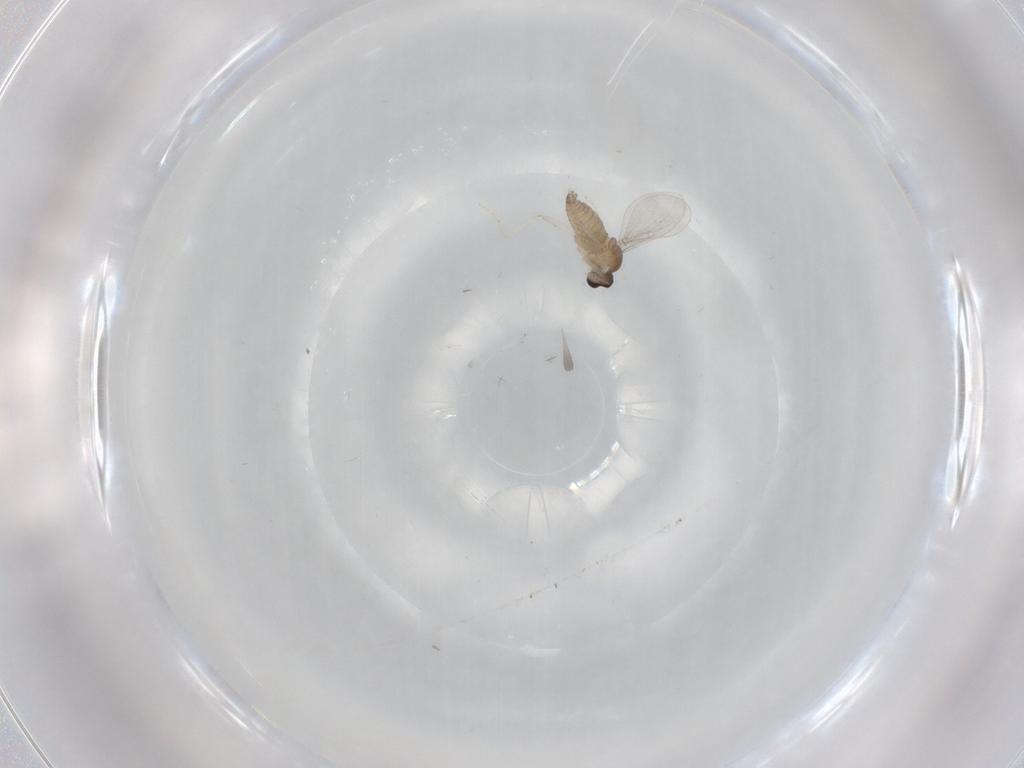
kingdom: Animalia
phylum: Arthropoda
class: Insecta
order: Diptera
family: Cecidomyiidae
